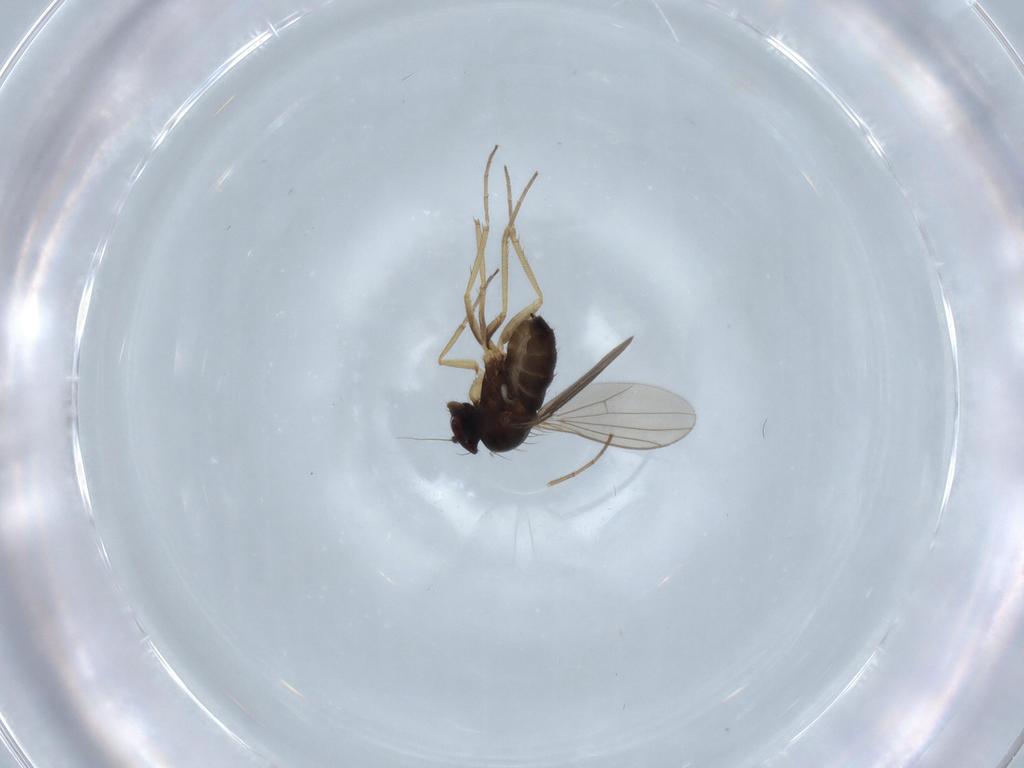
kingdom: Animalia
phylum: Arthropoda
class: Insecta
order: Diptera
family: Dolichopodidae
